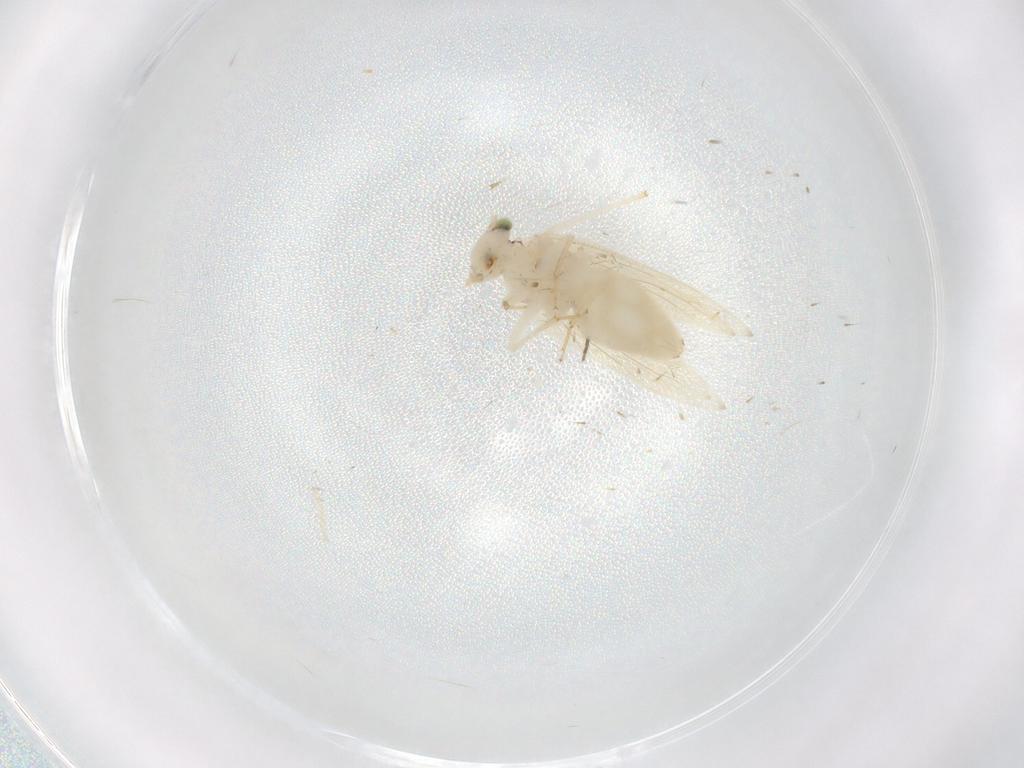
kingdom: Animalia
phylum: Arthropoda
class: Insecta
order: Psocodea
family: Lepidopsocidae
